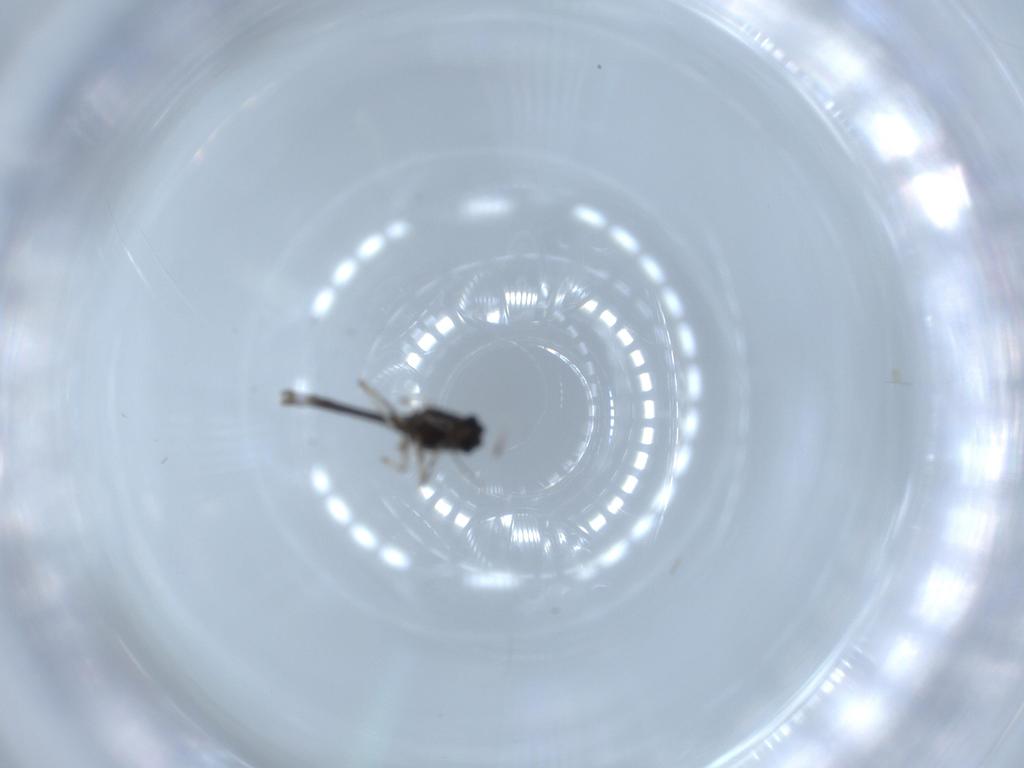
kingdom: Animalia
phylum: Arthropoda
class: Insecta
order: Diptera
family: Chironomidae
